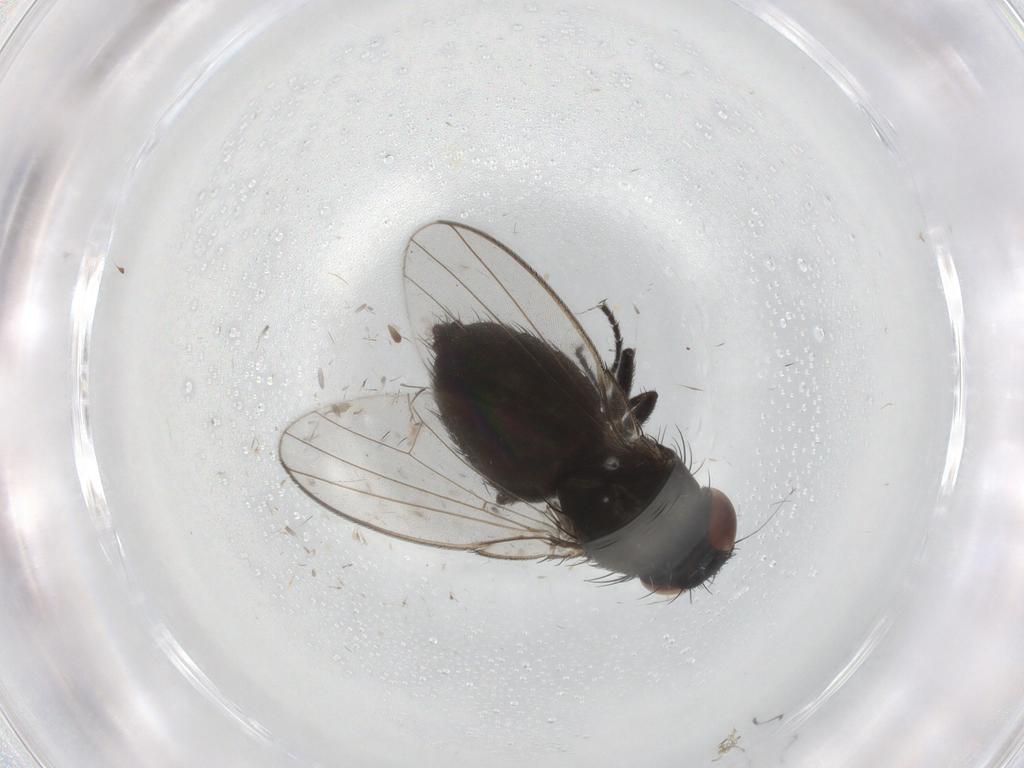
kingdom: Animalia
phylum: Arthropoda
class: Insecta
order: Diptera
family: Milichiidae
